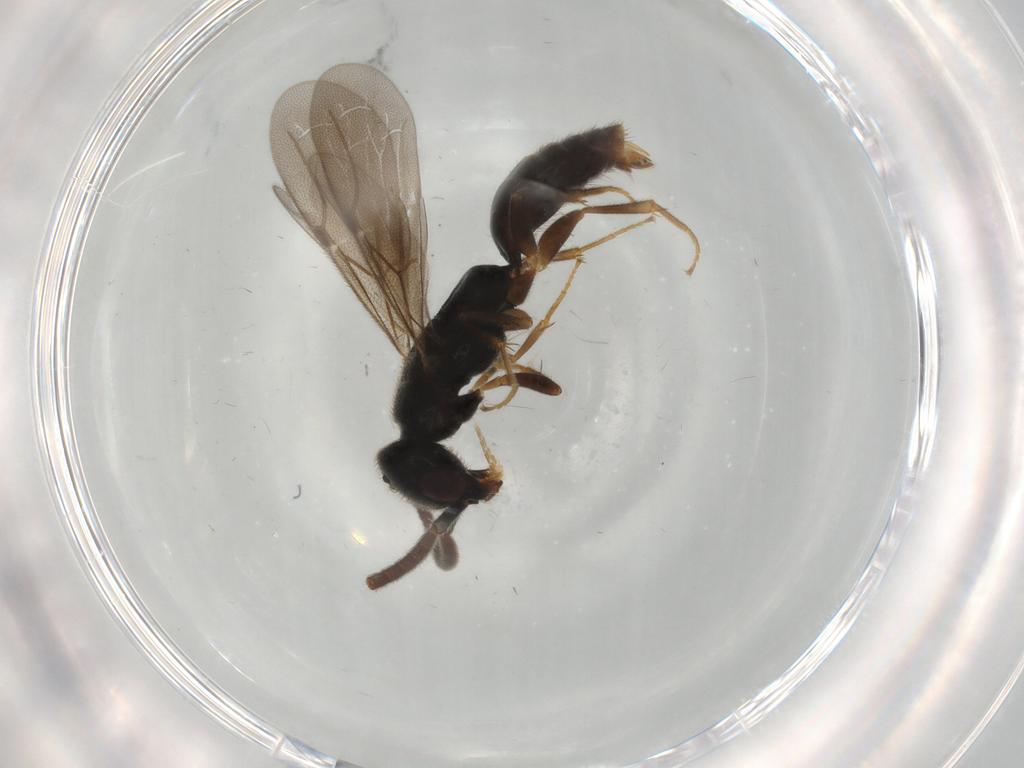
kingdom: Animalia
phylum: Arthropoda
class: Insecta
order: Hymenoptera
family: Bethylidae
